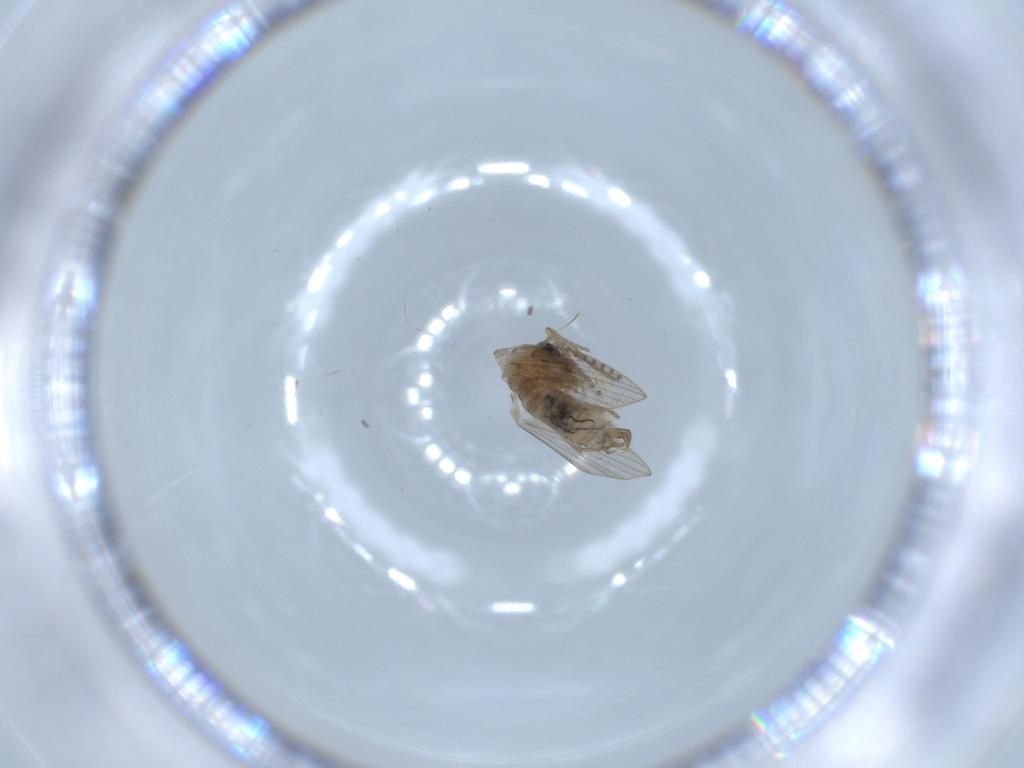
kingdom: Animalia
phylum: Arthropoda
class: Insecta
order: Diptera
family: Psychodidae
